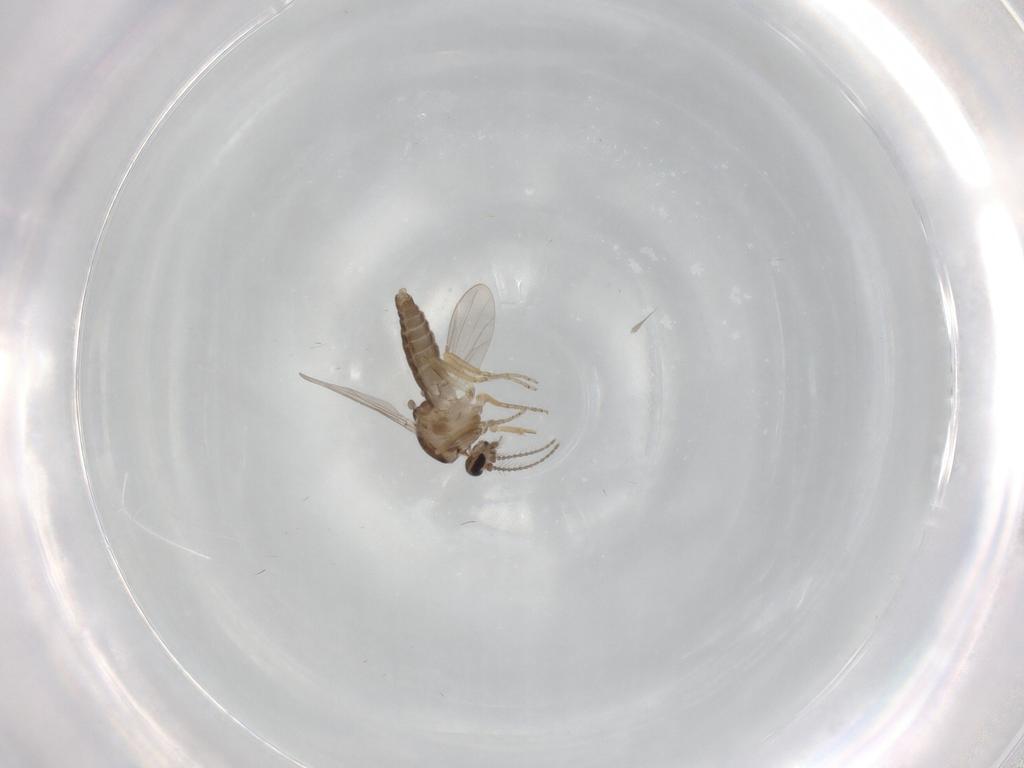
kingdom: Animalia
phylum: Arthropoda
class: Insecta
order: Diptera
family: Ceratopogonidae
